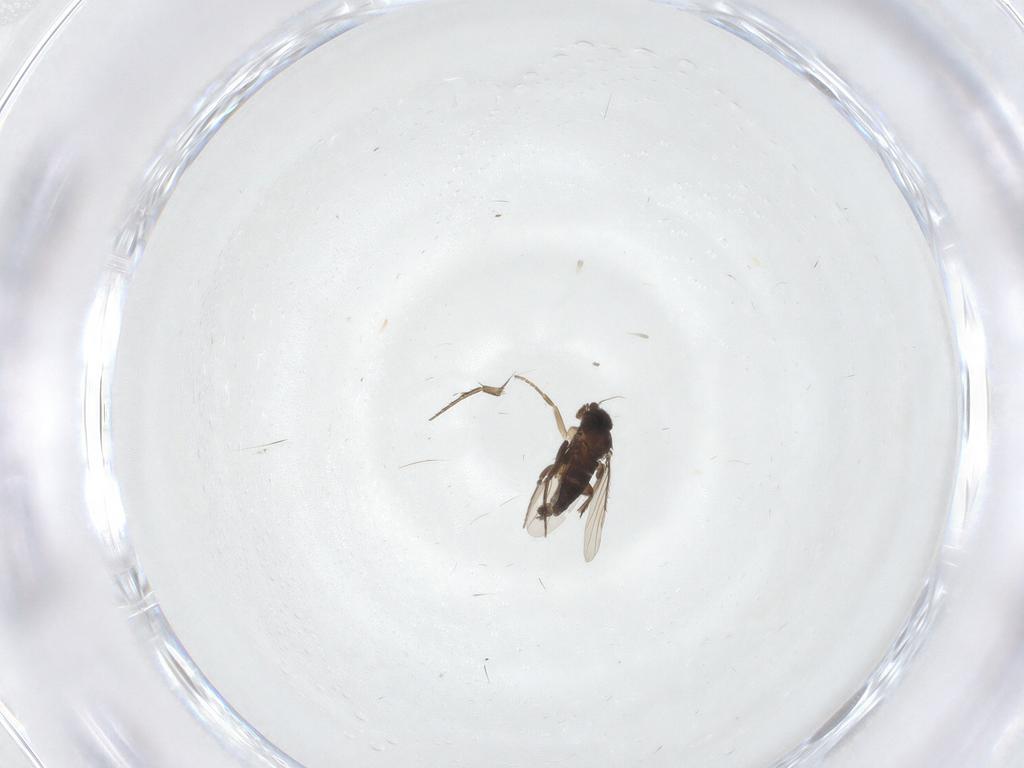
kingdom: Animalia
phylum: Arthropoda
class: Insecta
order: Diptera
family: Phoridae
